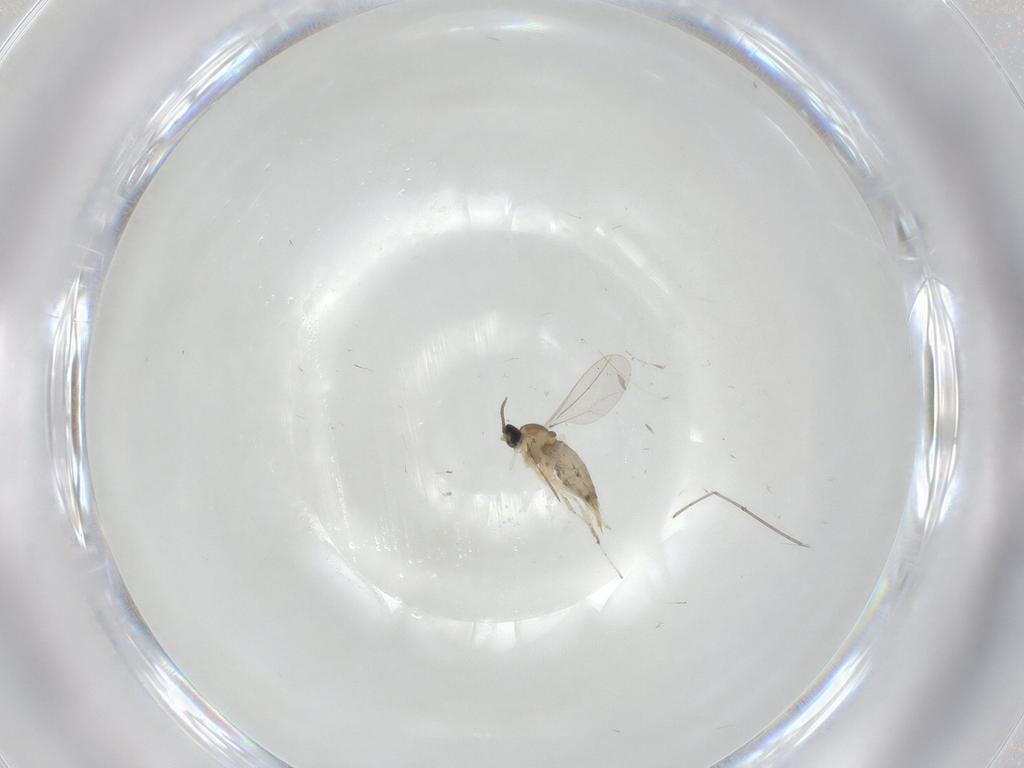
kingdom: Animalia
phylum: Arthropoda
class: Insecta
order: Diptera
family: Cecidomyiidae
